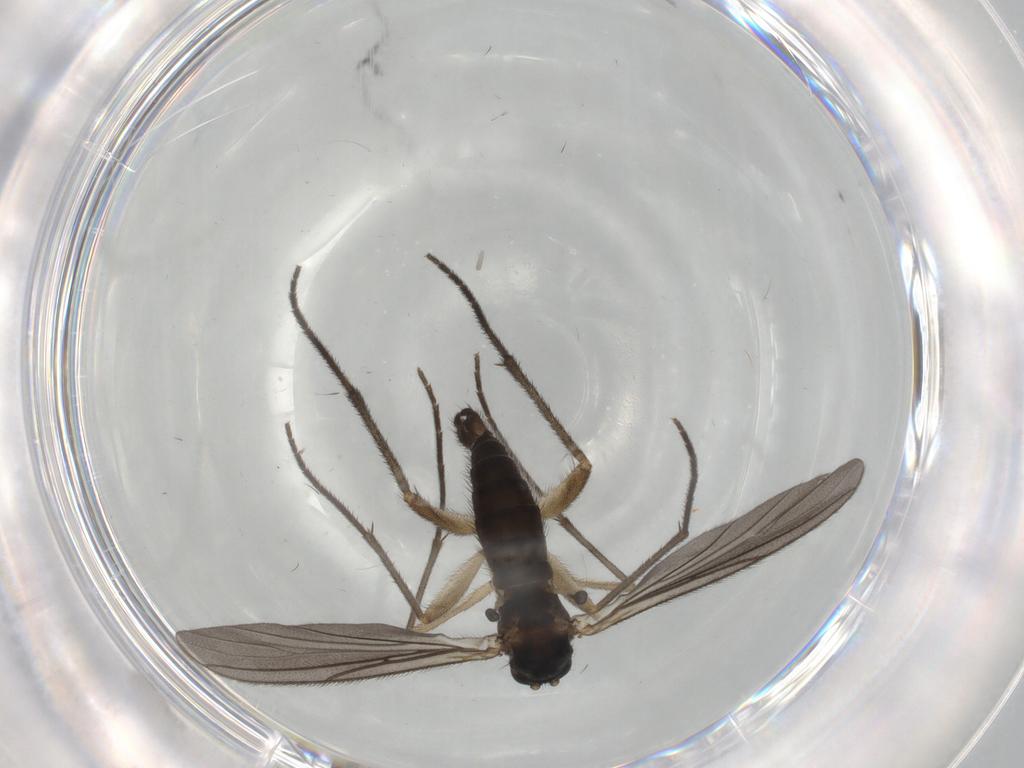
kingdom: Animalia
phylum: Arthropoda
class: Insecta
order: Diptera
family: Sciaridae
